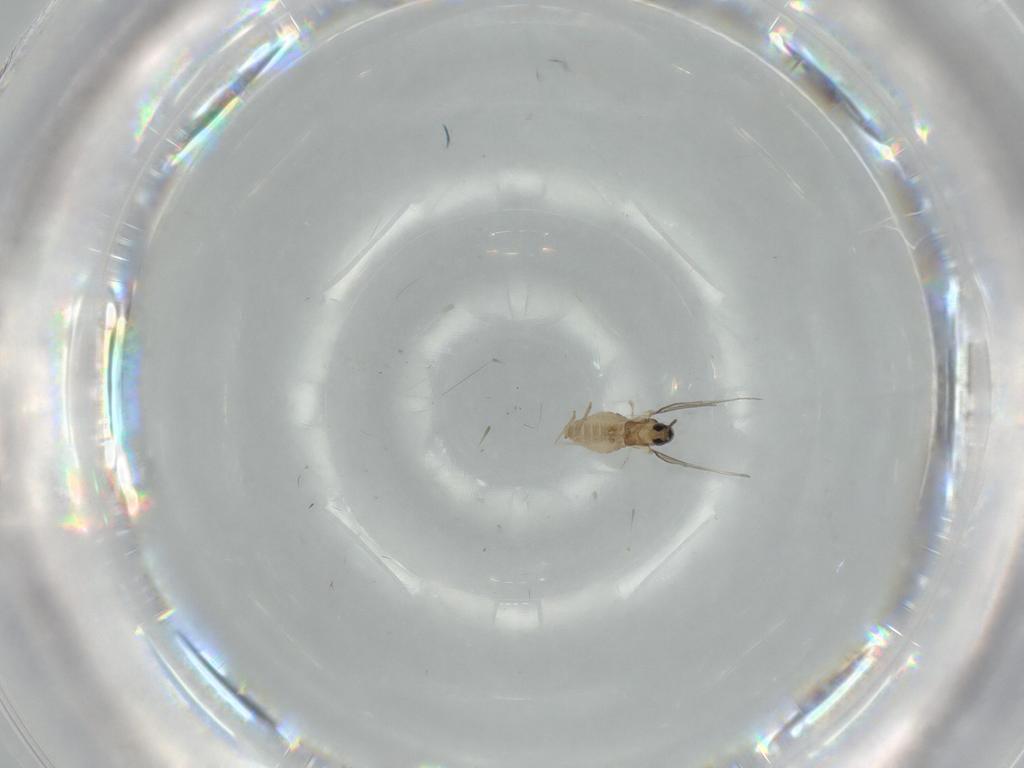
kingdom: Animalia
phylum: Arthropoda
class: Insecta
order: Diptera
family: Cecidomyiidae
